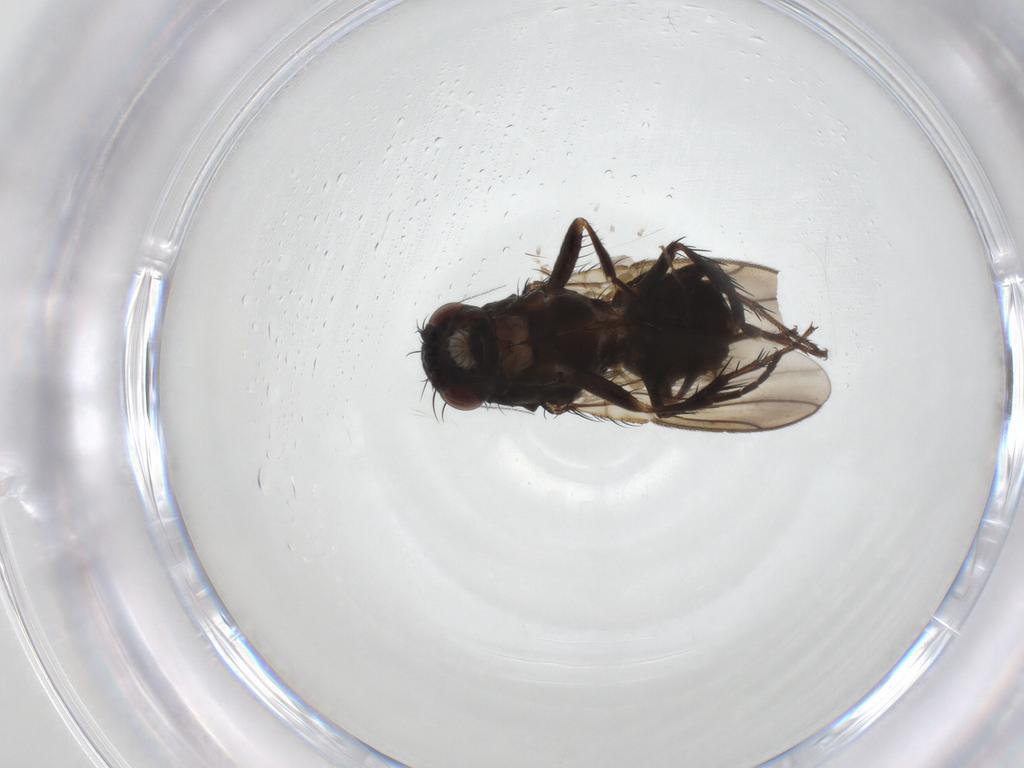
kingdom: Animalia
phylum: Arthropoda
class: Insecta
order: Diptera
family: Sphaeroceridae
